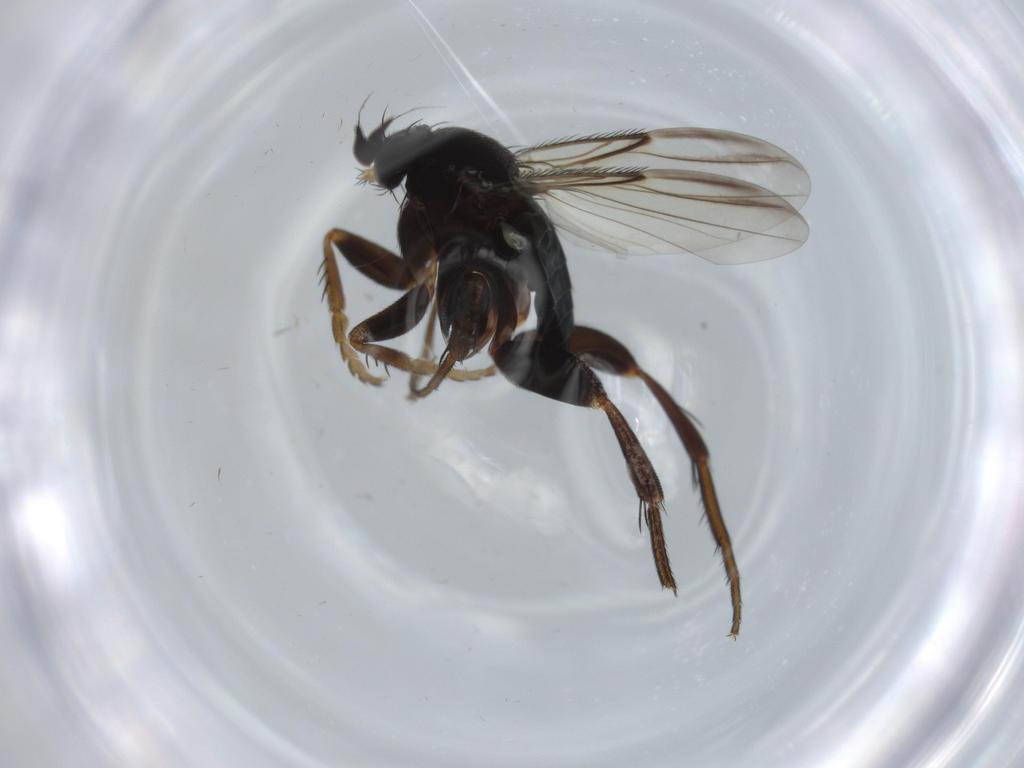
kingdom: Animalia
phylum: Arthropoda
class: Insecta
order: Diptera
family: Phoridae
